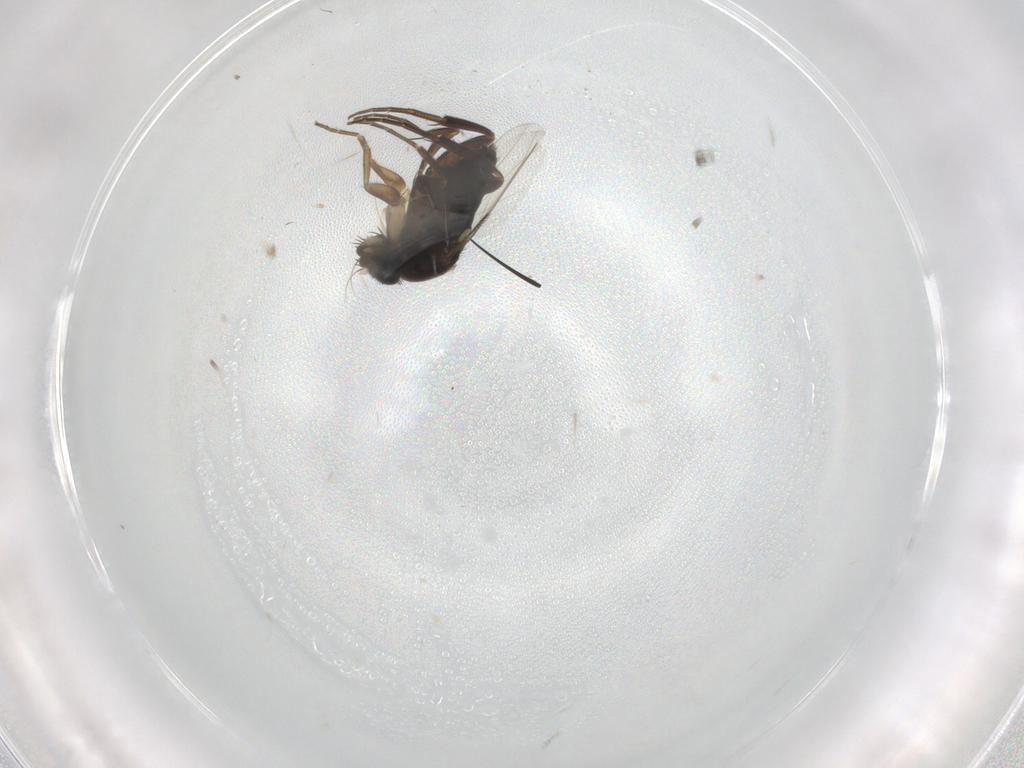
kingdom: Animalia
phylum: Arthropoda
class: Insecta
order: Diptera
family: Phoridae
